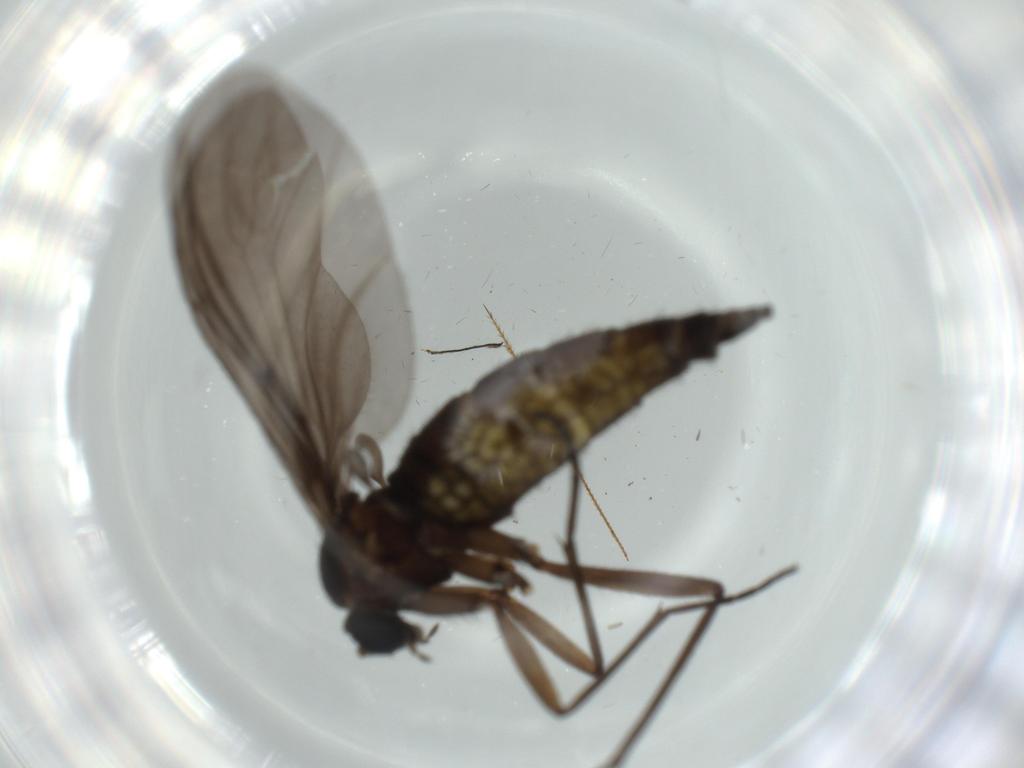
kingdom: Animalia
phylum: Arthropoda
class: Insecta
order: Diptera
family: Sciaridae
